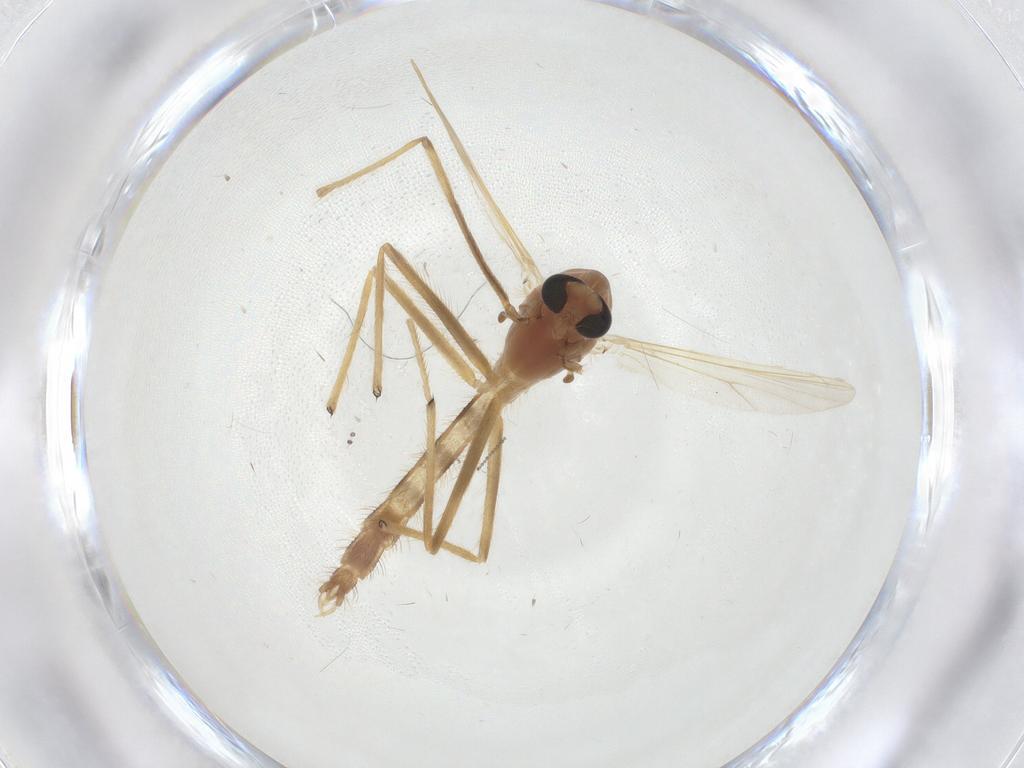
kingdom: Animalia
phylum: Arthropoda
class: Insecta
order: Diptera
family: Chironomidae
